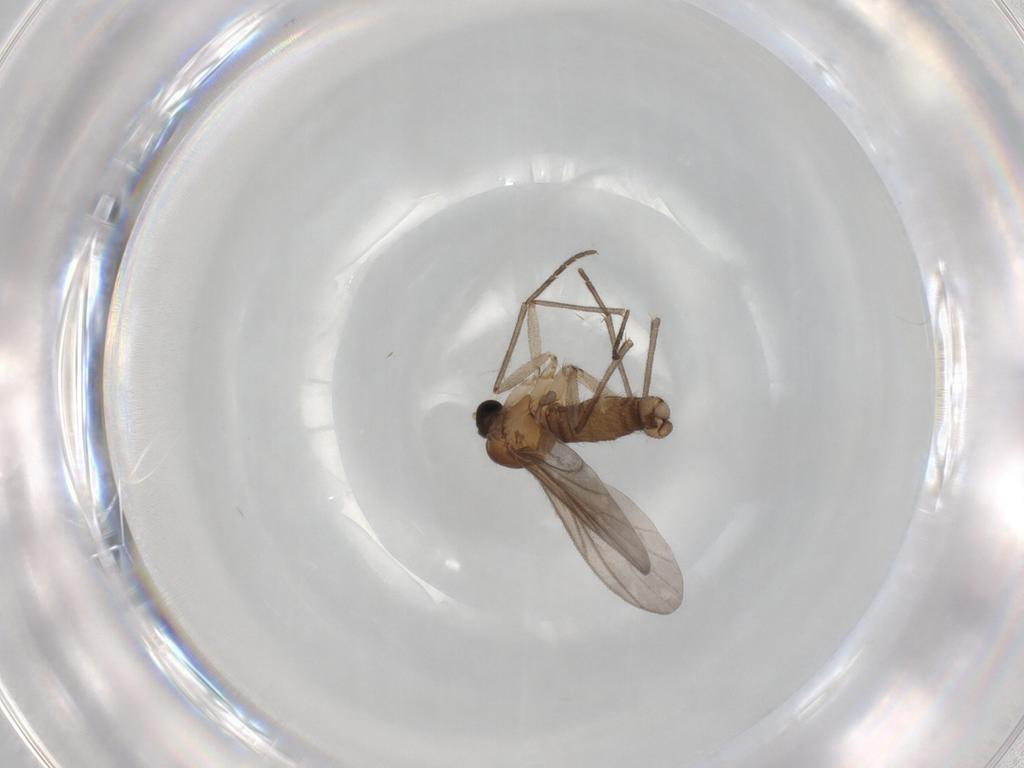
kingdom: Animalia
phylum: Arthropoda
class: Insecta
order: Diptera
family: Sciaridae
